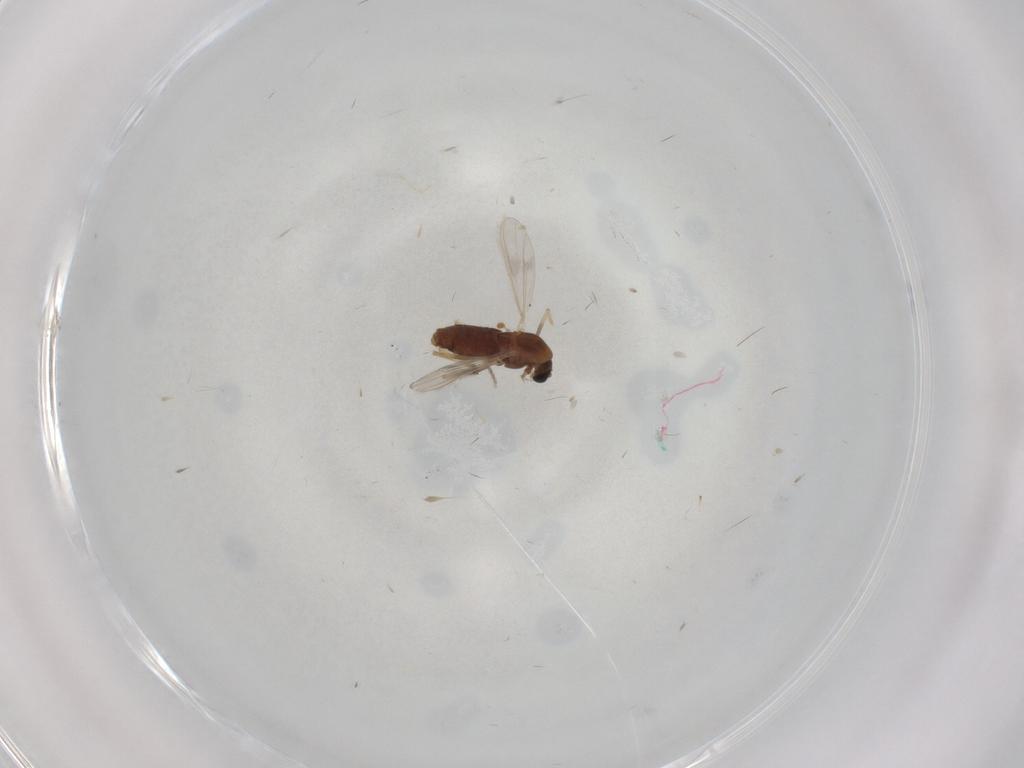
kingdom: Animalia
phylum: Arthropoda
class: Insecta
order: Diptera
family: Chironomidae
